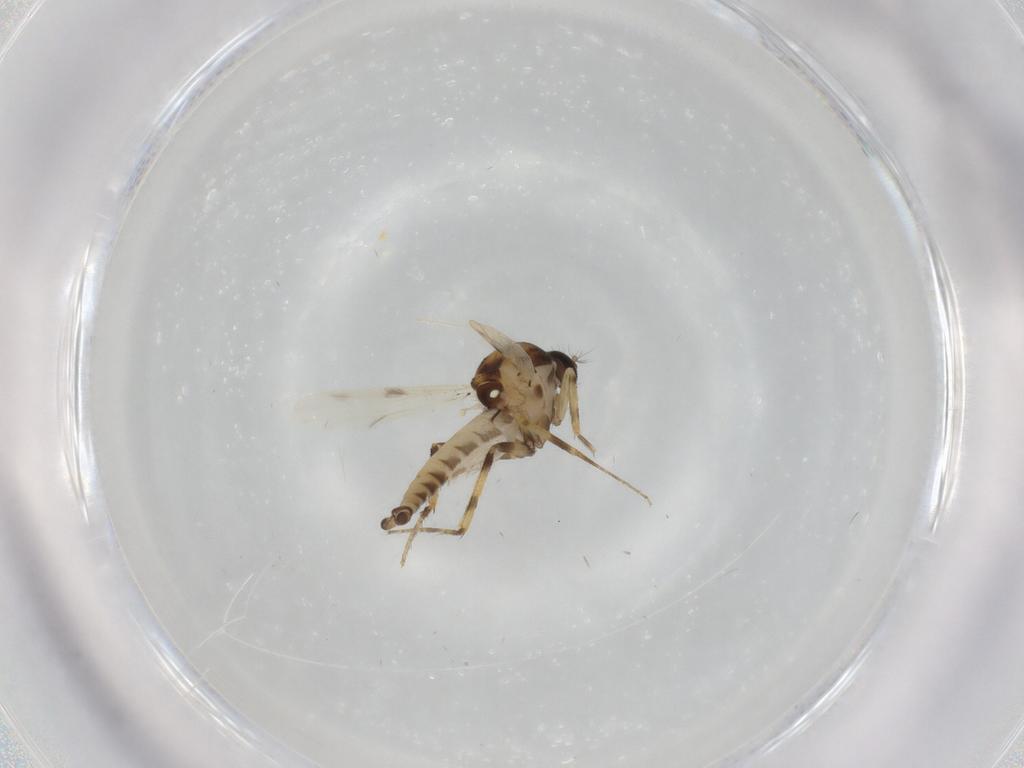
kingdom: Animalia
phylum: Arthropoda
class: Insecta
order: Diptera
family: Ceratopogonidae
